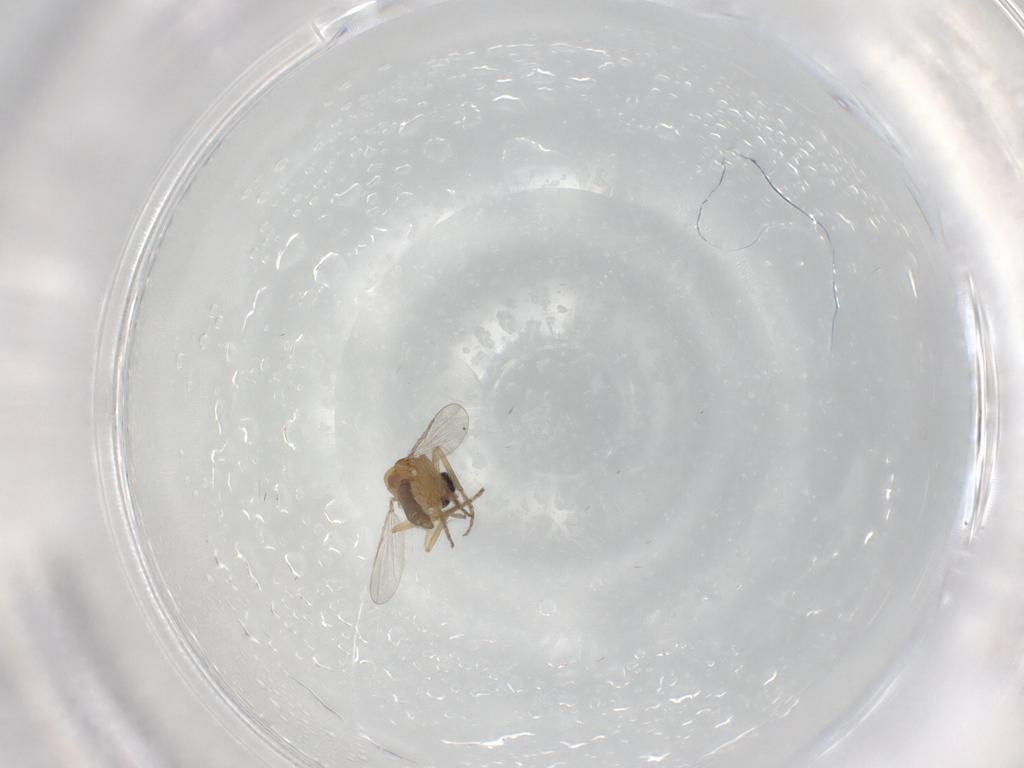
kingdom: Animalia
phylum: Arthropoda
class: Insecta
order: Diptera
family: Ceratopogonidae
